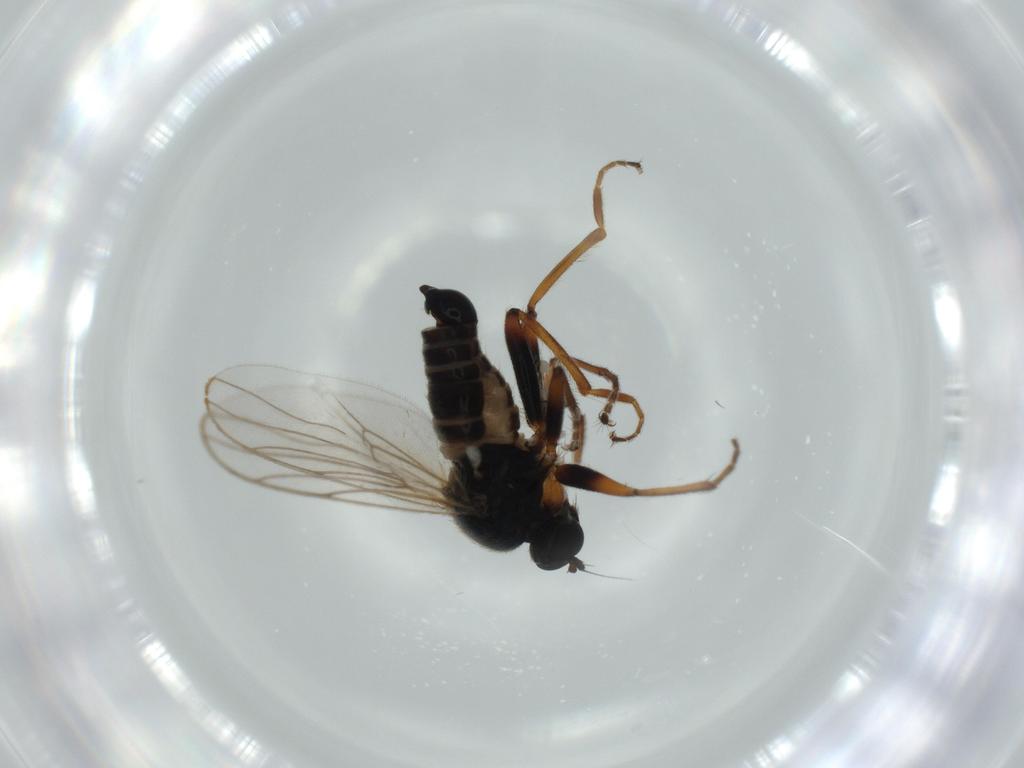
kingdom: Animalia
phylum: Arthropoda
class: Insecta
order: Diptera
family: Hybotidae
